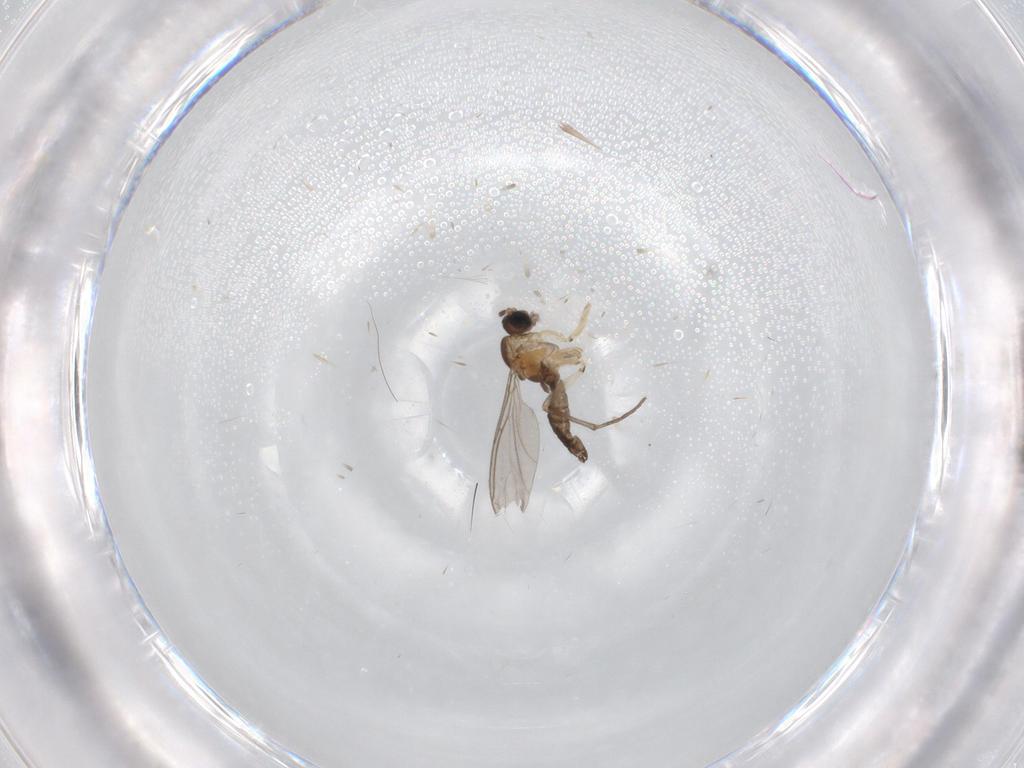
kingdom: Animalia
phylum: Arthropoda
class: Insecta
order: Diptera
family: Sciaridae
